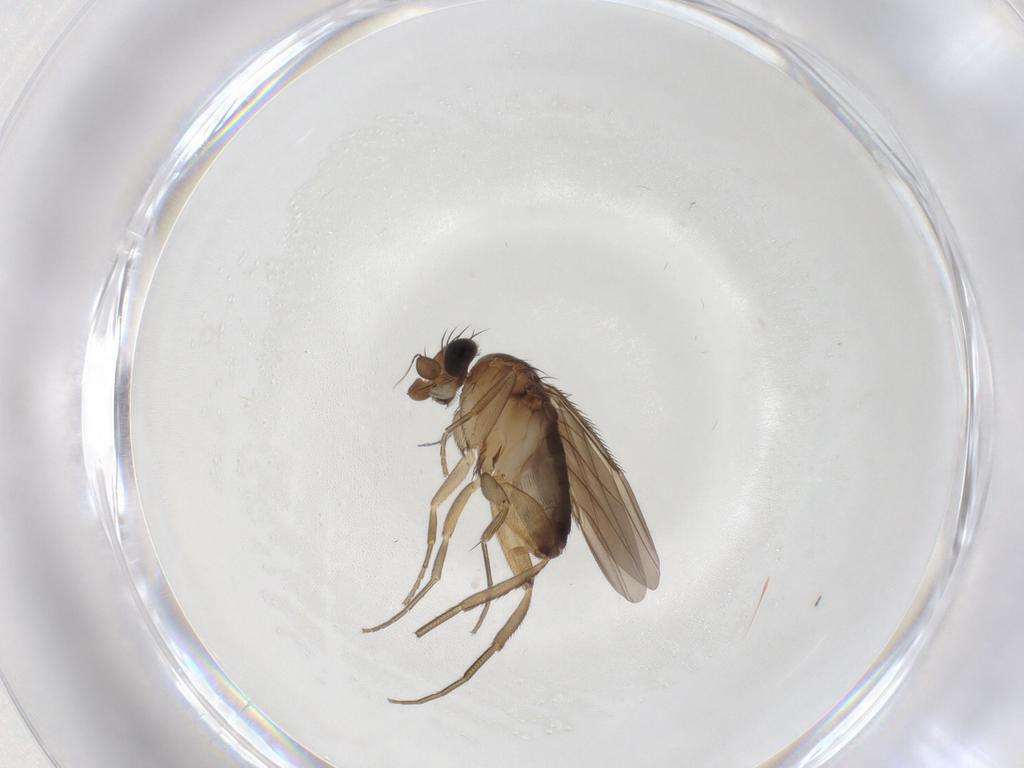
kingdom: Animalia
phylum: Arthropoda
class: Insecta
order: Diptera
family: Phoridae
